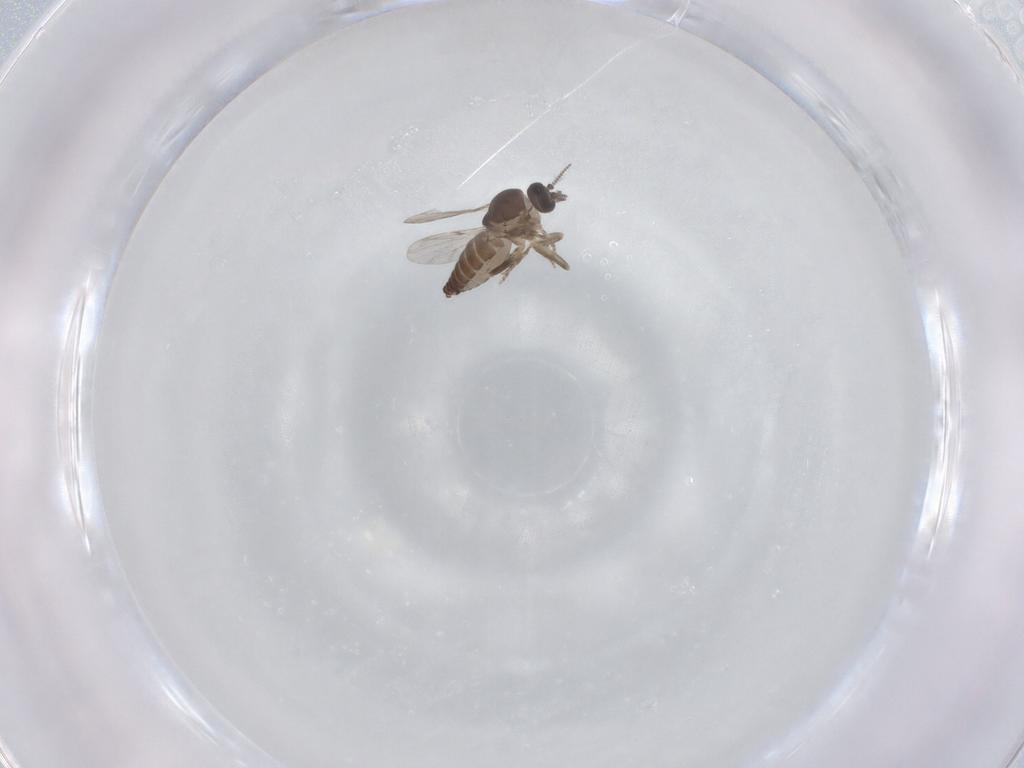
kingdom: Animalia
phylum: Arthropoda
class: Insecta
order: Diptera
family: Ceratopogonidae
